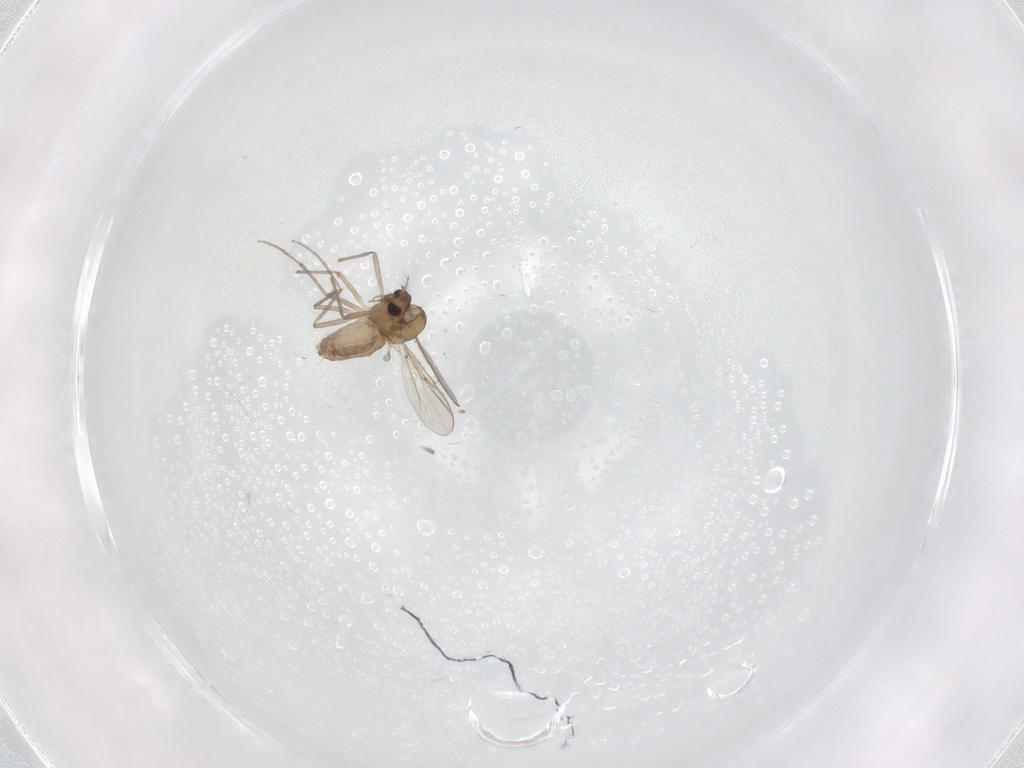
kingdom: Animalia
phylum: Arthropoda
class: Insecta
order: Diptera
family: Chironomidae
